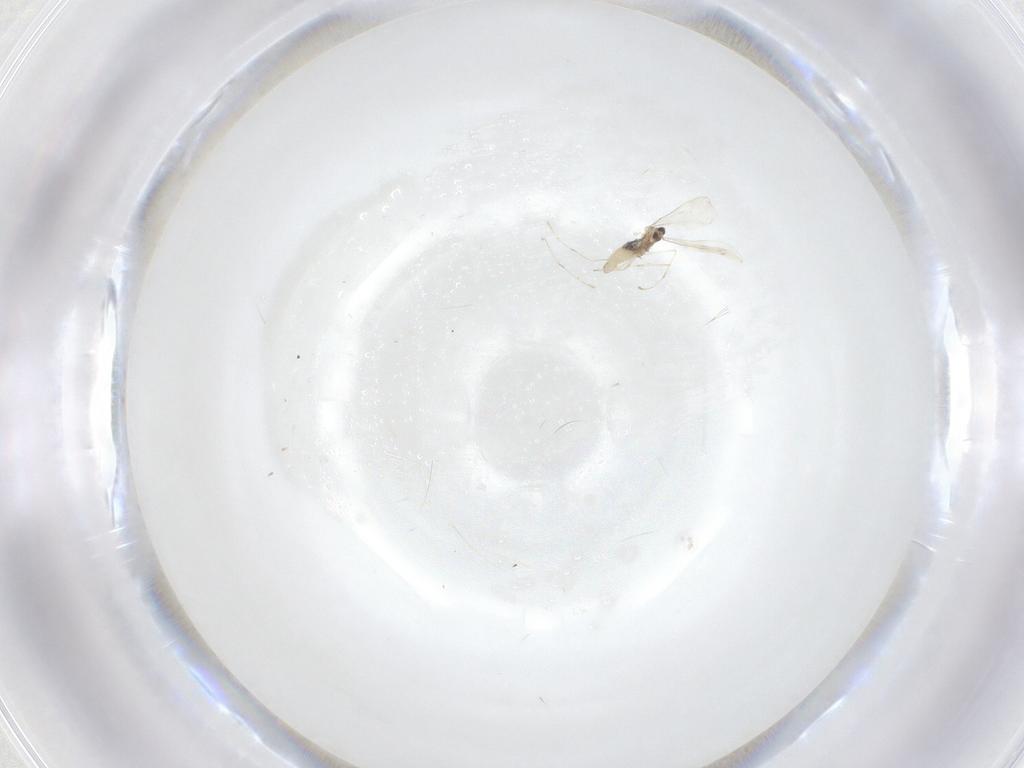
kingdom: Animalia
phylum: Arthropoda
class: Insecta
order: Diptera
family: Cecidomyiidae
